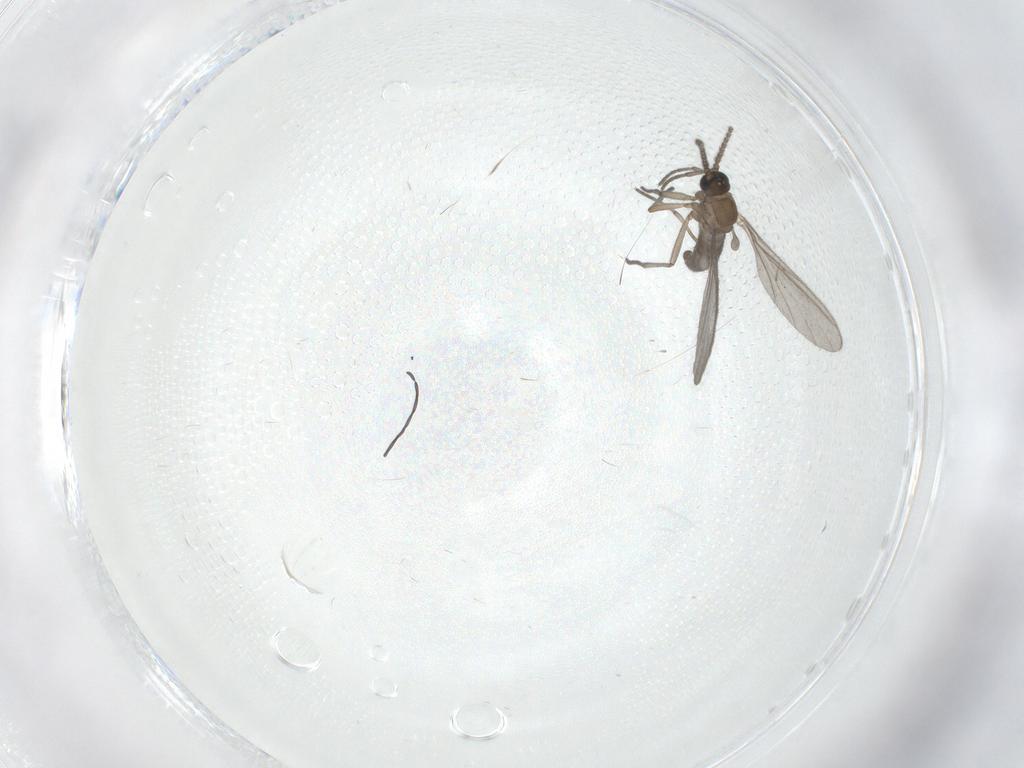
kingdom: Animalia
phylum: Arthropoda
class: Insecta
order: Diptera
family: Sciaridae
